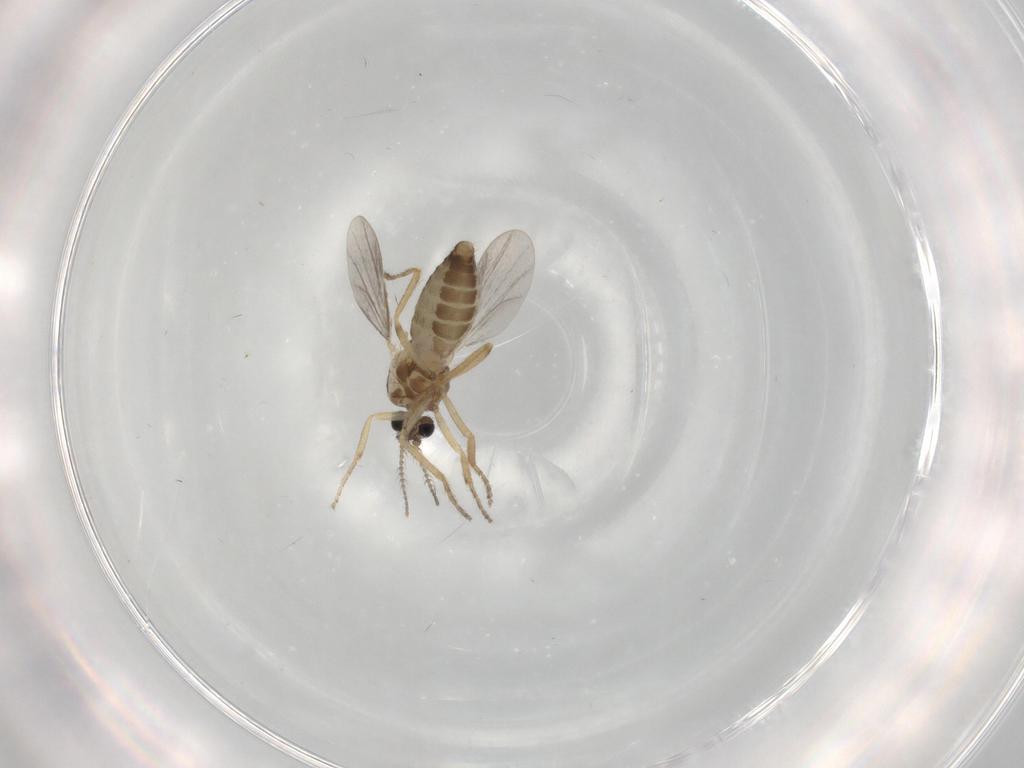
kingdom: Animalia
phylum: Arthropoda
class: Insecta
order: Diptera
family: Ceratopogonidae
